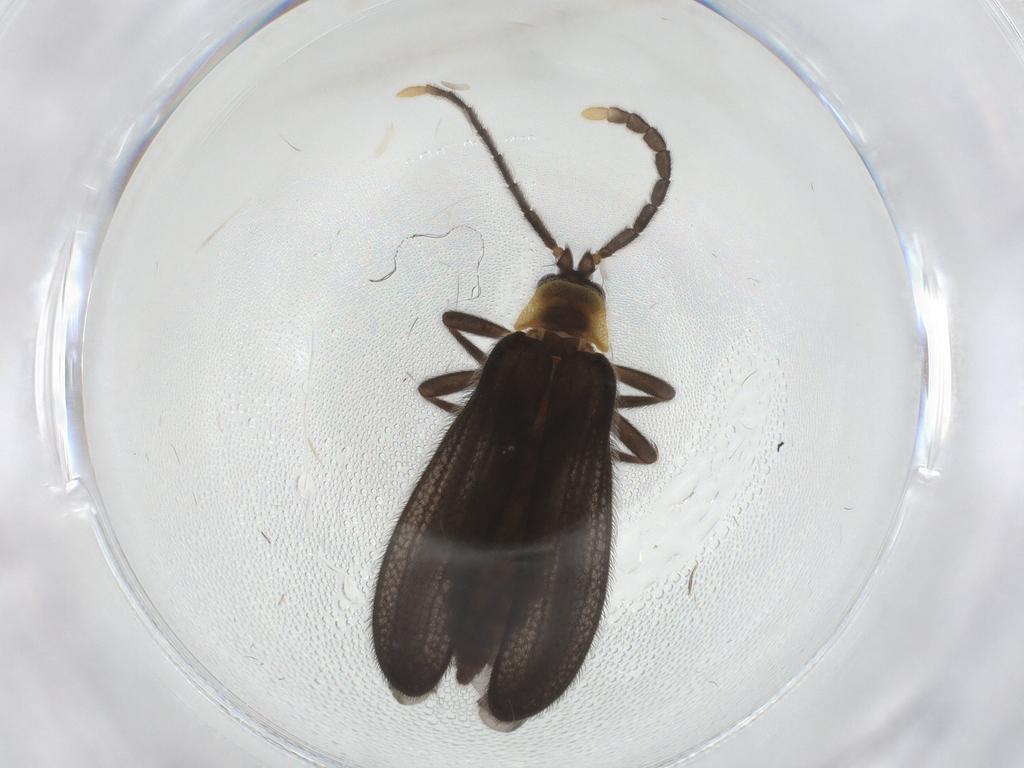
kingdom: Animalia
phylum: Arthropoda
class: Insecta
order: Coleoptera
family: Lycidae
